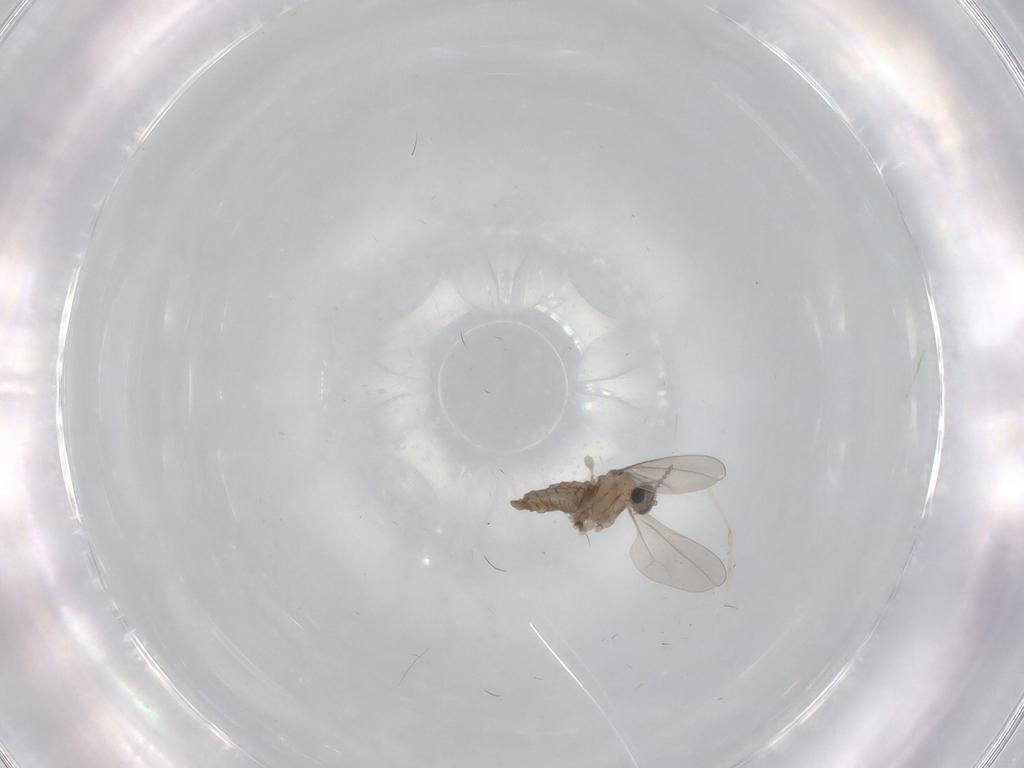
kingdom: Animalia
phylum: Arthropoda
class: Insecta
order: Diptera
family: Cecidomyiidae
